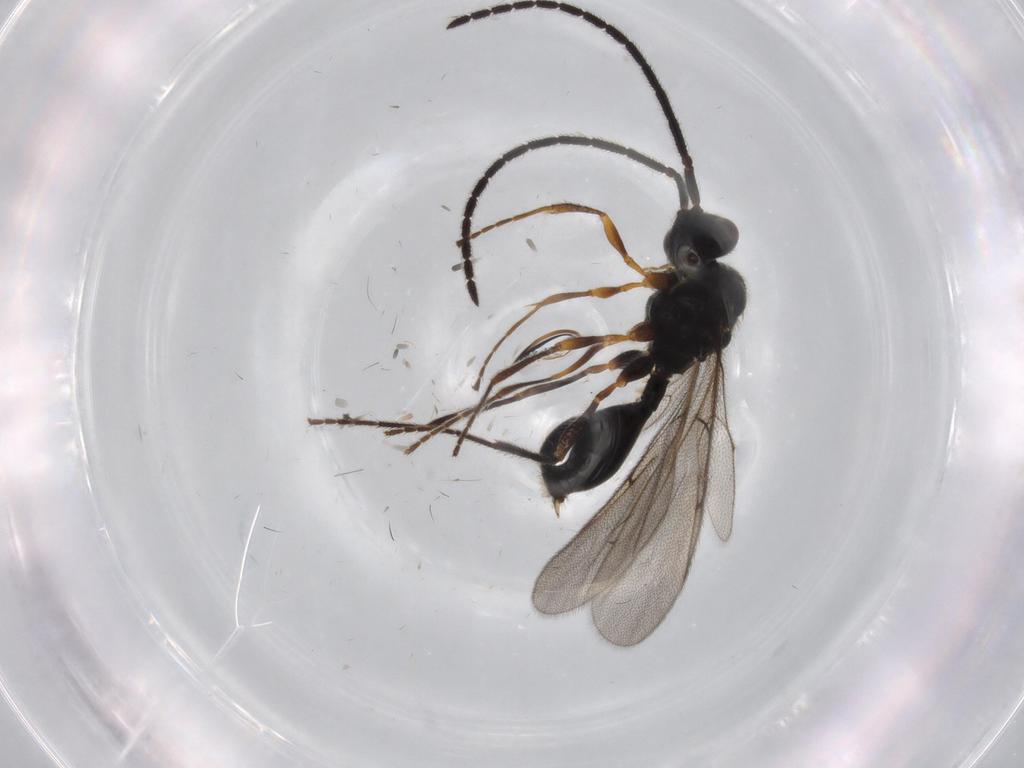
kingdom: Animalia
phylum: Arthropoda
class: Insecta
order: Hymenoptera
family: Diapriidae
